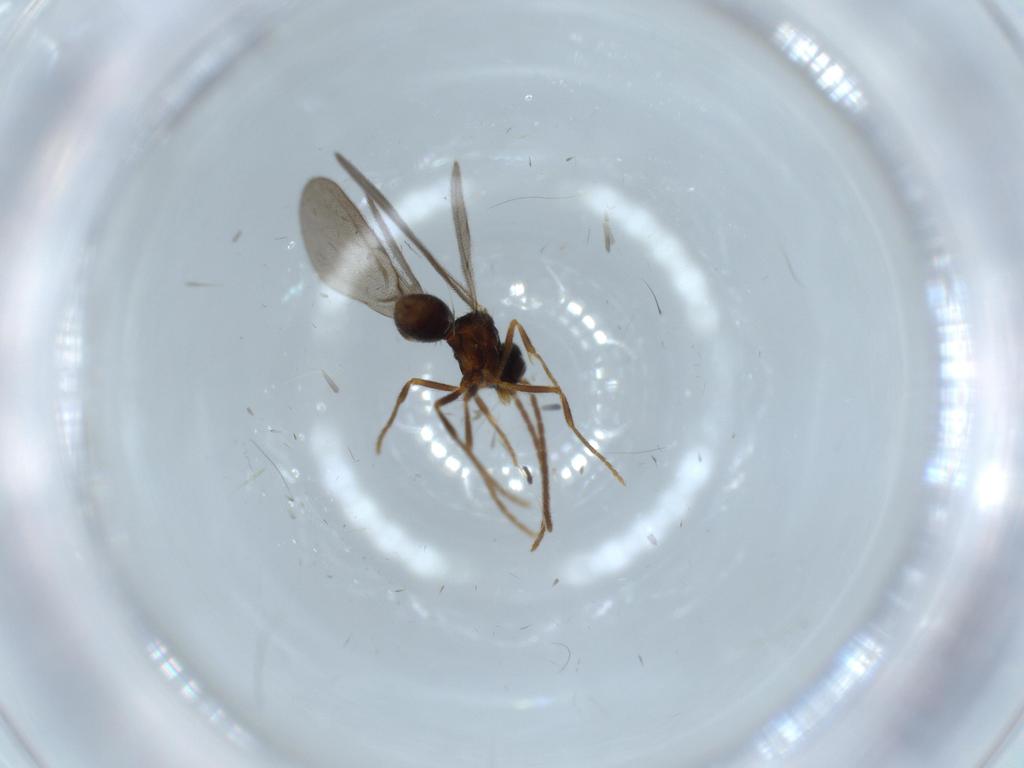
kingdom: Animalia
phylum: Arthropoda
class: Insecta
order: Hymenoptera
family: Formicidae
